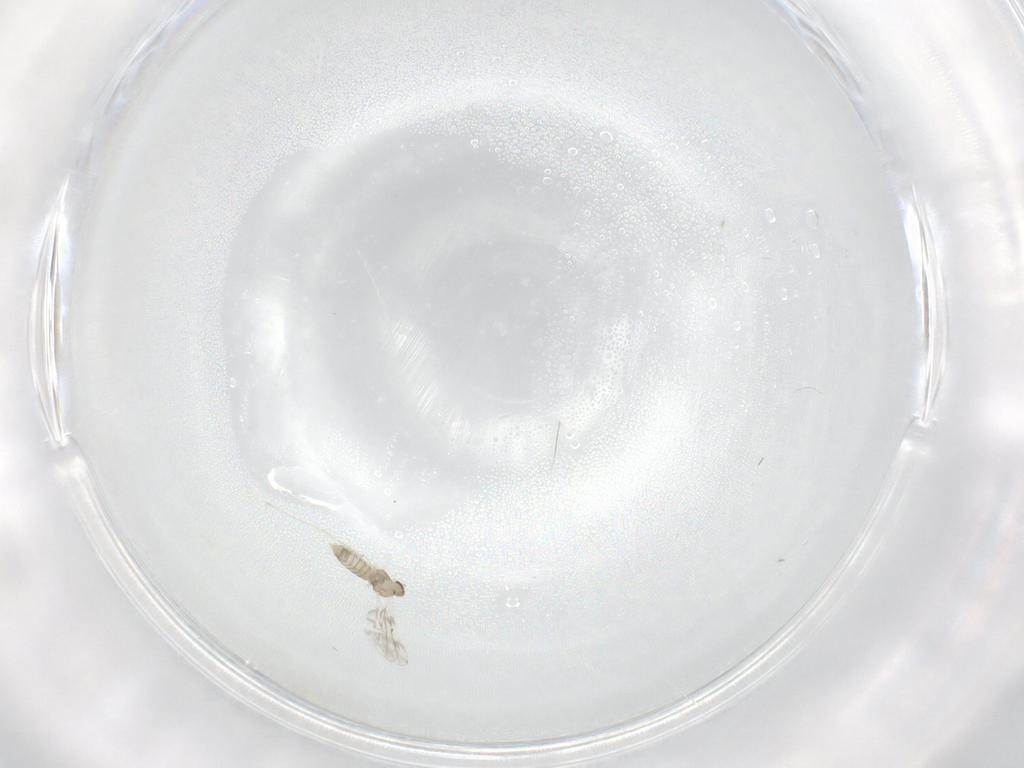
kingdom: Animalia
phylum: Arthropoda
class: Insecta
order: Diptera
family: Cecidomyiidae
